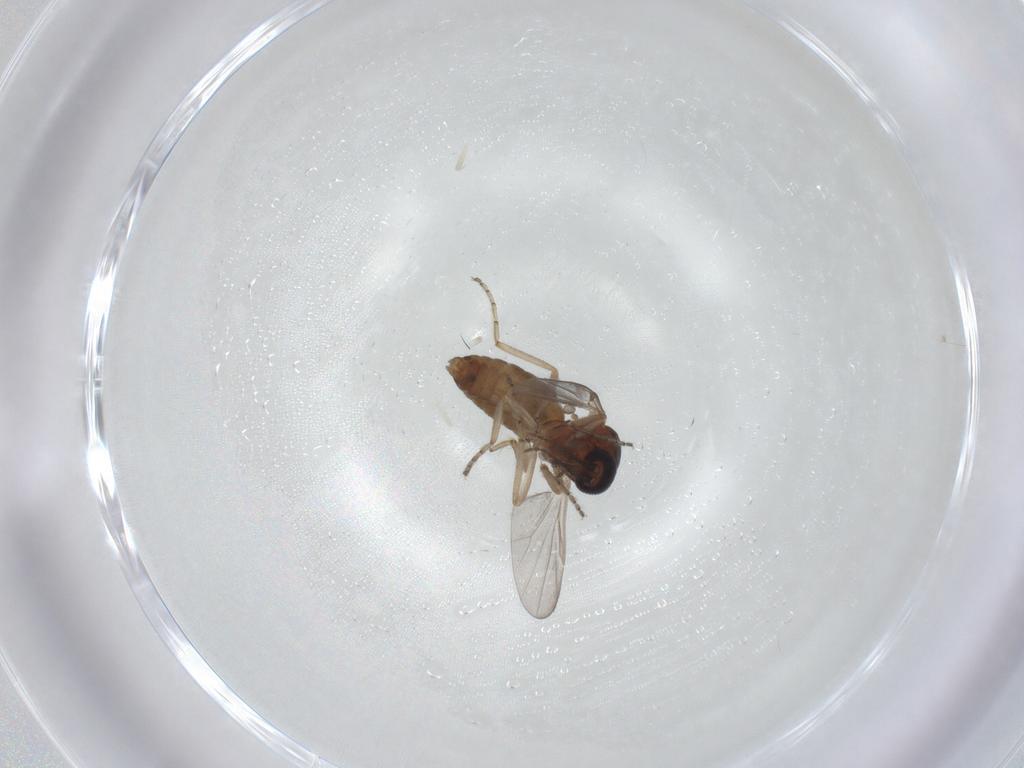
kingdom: Animalia
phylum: Arthropoda
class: Insecta
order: Diptera
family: Ceratopogonidae
